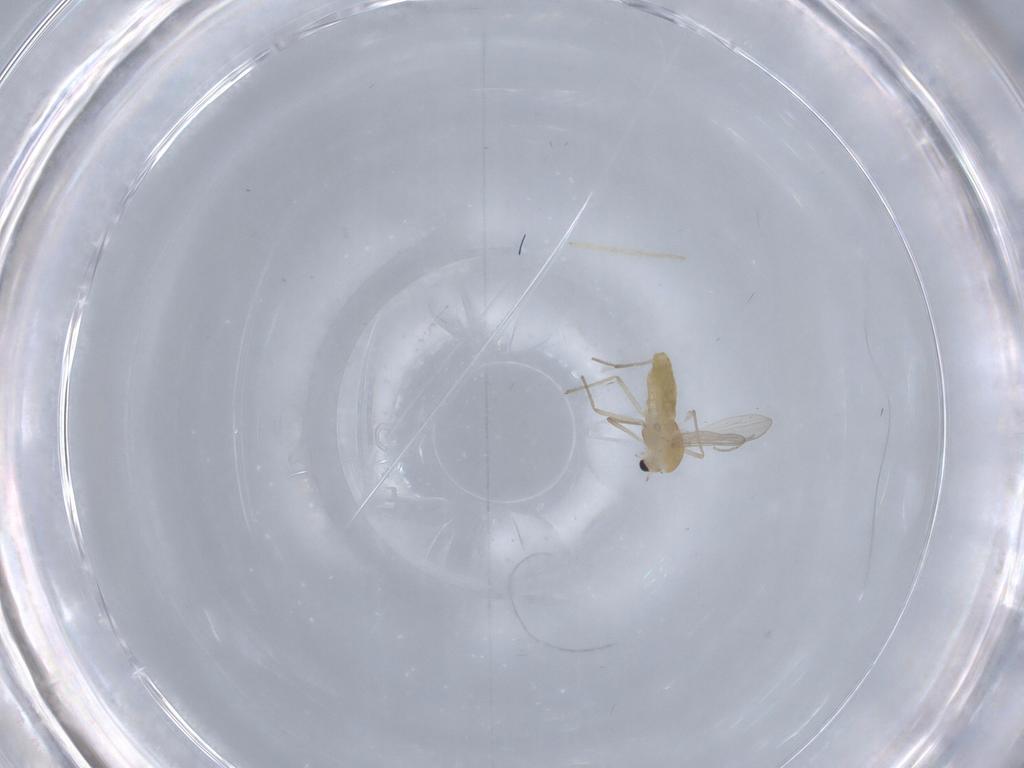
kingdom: Animalia
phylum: Arthropoda
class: Insecta
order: Diptera
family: Chironomidae
